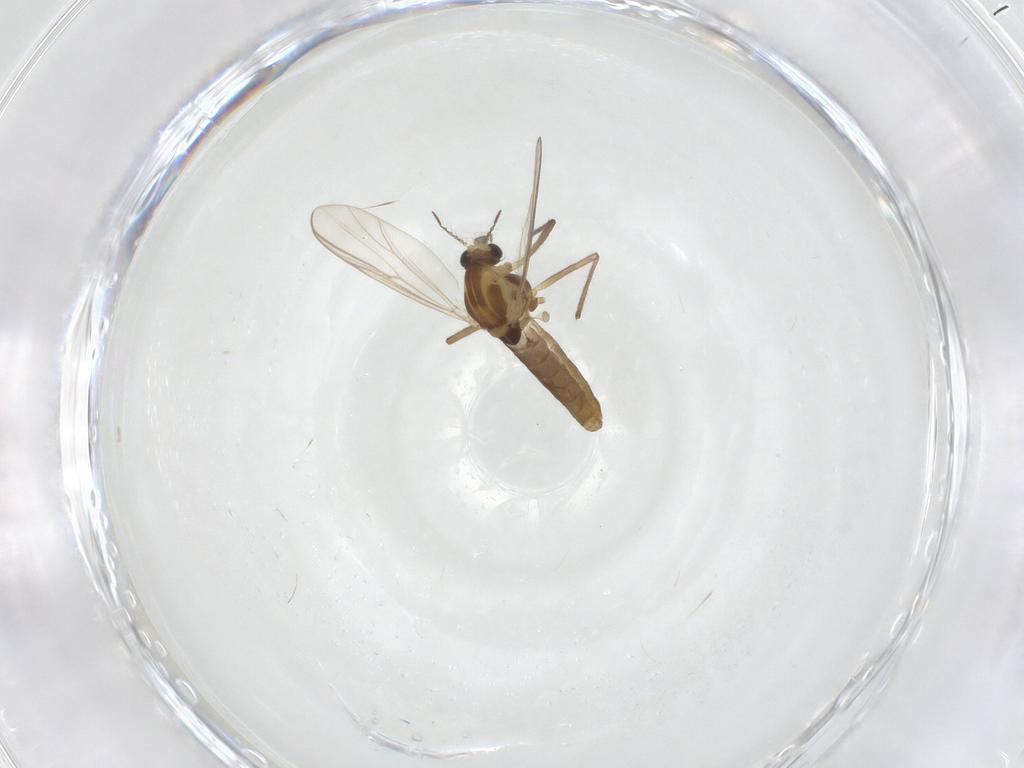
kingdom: Animalia
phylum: Arthropoda
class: Insecta
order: Diptera
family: Chironomidae
